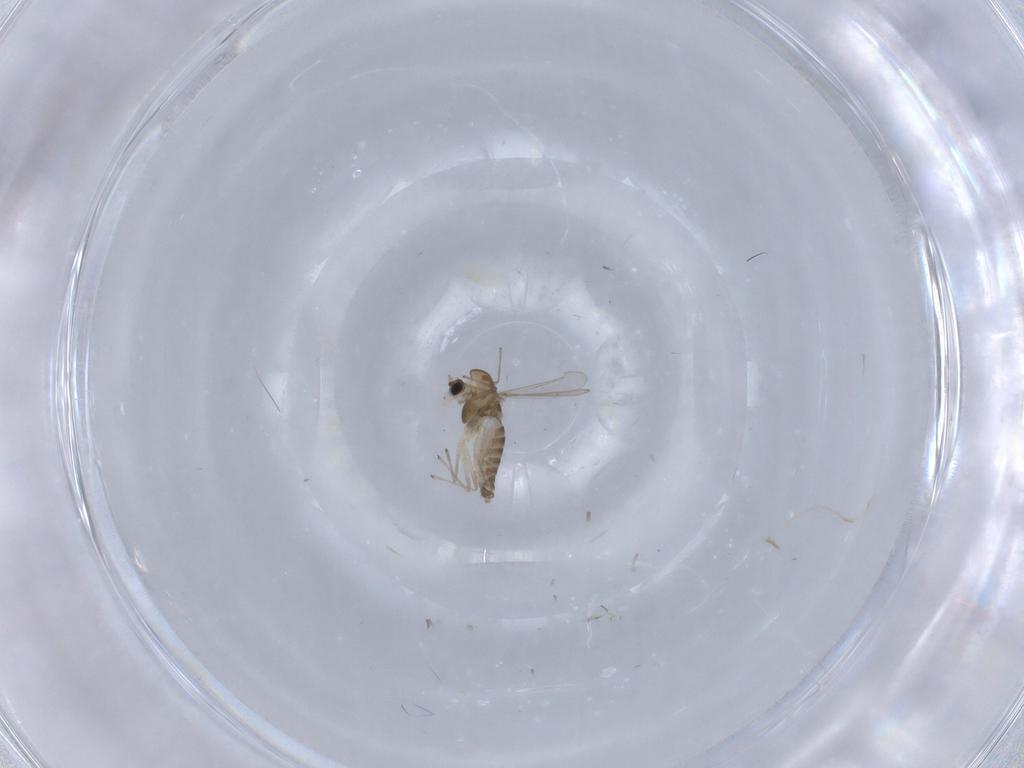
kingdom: Animalia
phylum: Arthropoda
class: Insecta
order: Diptera
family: Chironomidae
